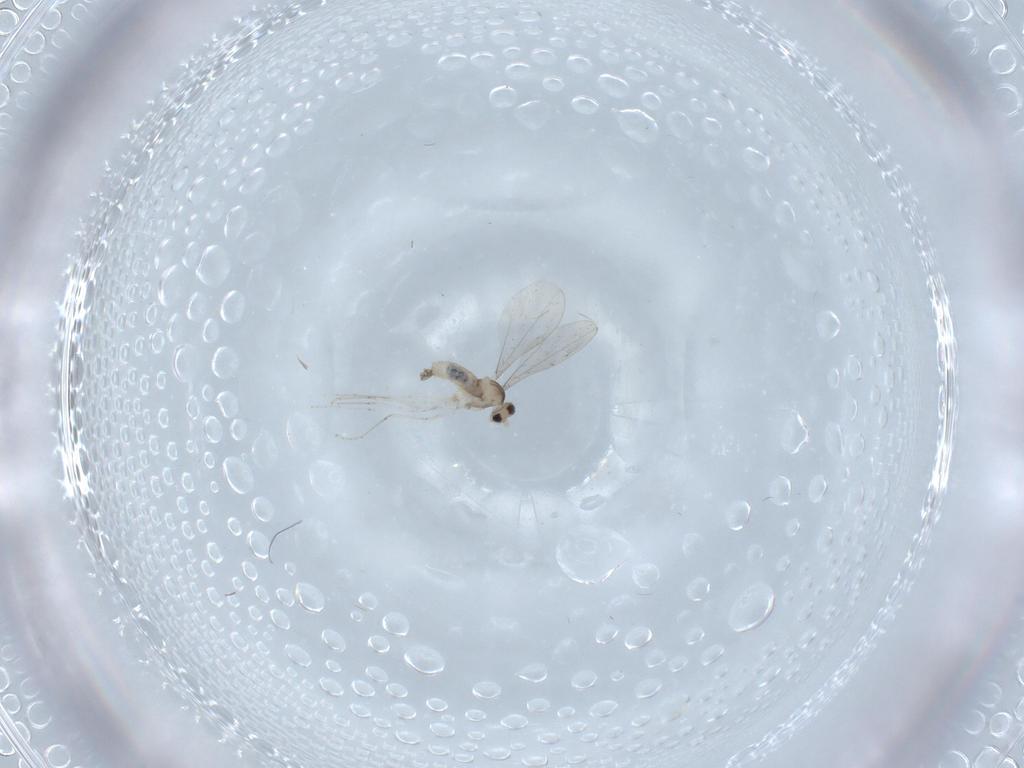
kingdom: Animalia
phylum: Arthropoda
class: Insecta
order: Diptera
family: Chironomidae
